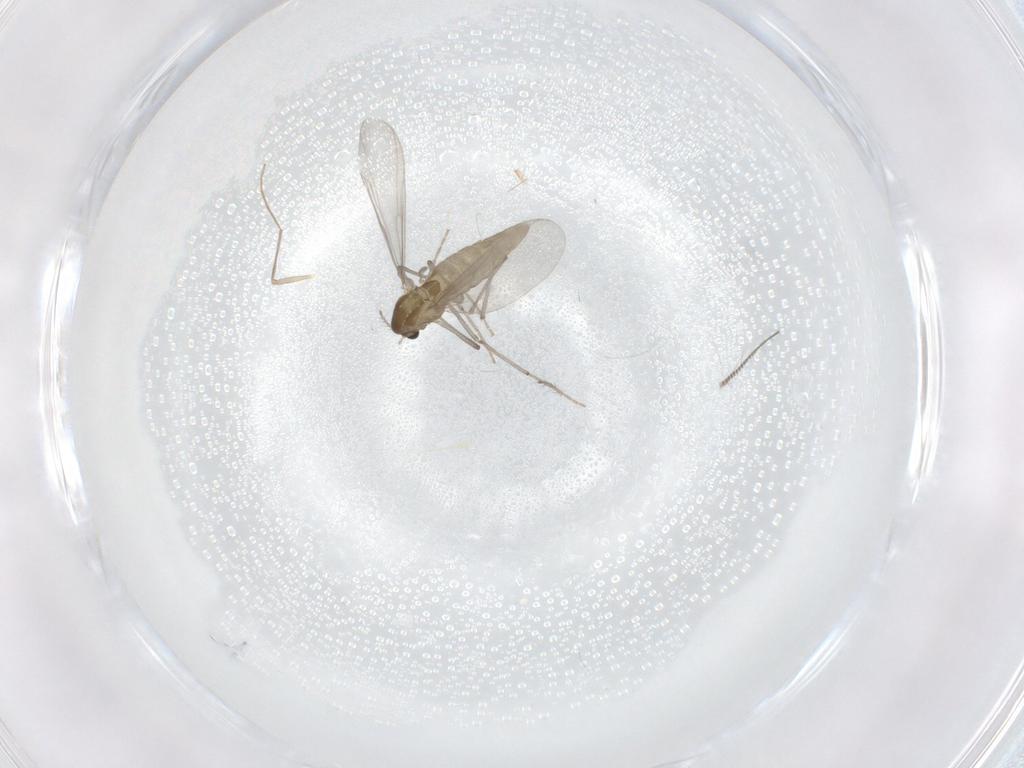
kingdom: Animalia
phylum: Arthropoda
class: Insecta
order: Diptera
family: Chironomidae
